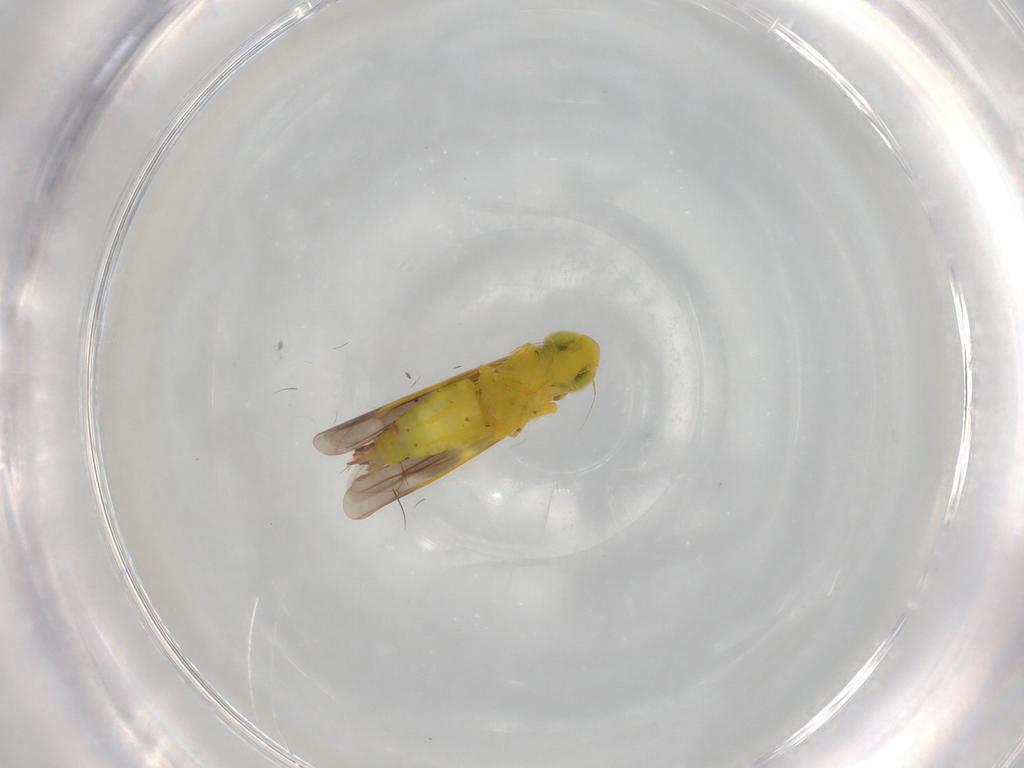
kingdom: Animalia
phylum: Arthropoda
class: Insecta
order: Hemiptera
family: Cicadellidae
